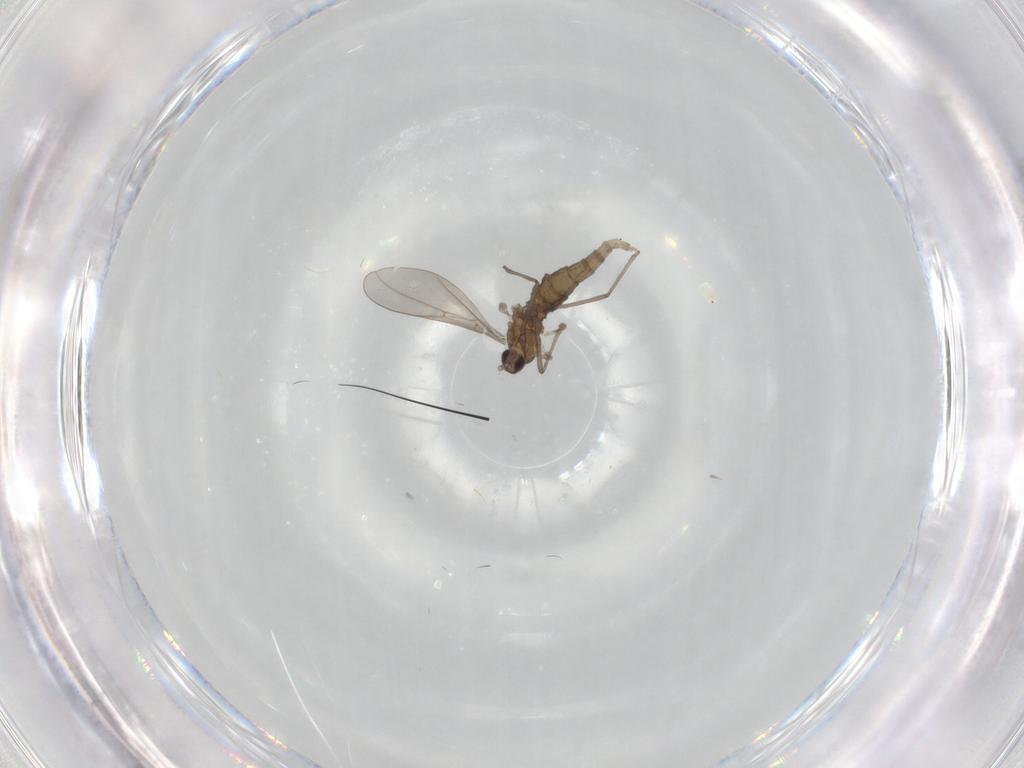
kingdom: Animalia
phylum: Arthropoda
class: Insecta
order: Diptera
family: Cecidomyiidae
